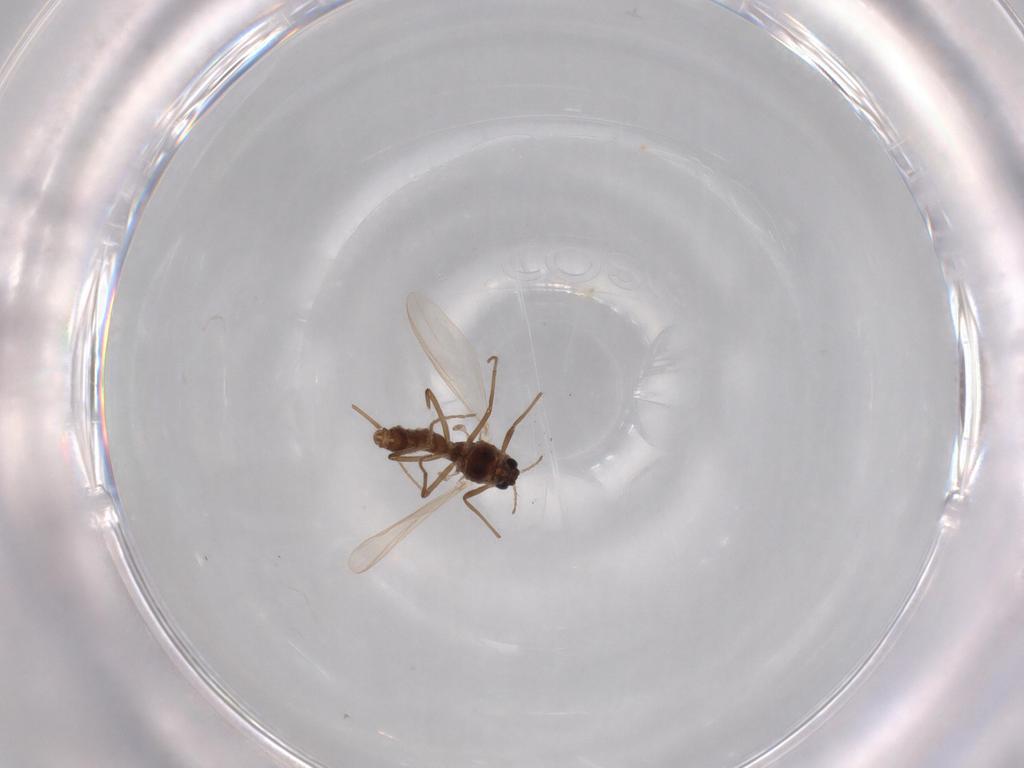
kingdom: Animalia
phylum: Arthropoda
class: Insecta
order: Diptera
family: Chironomidae
